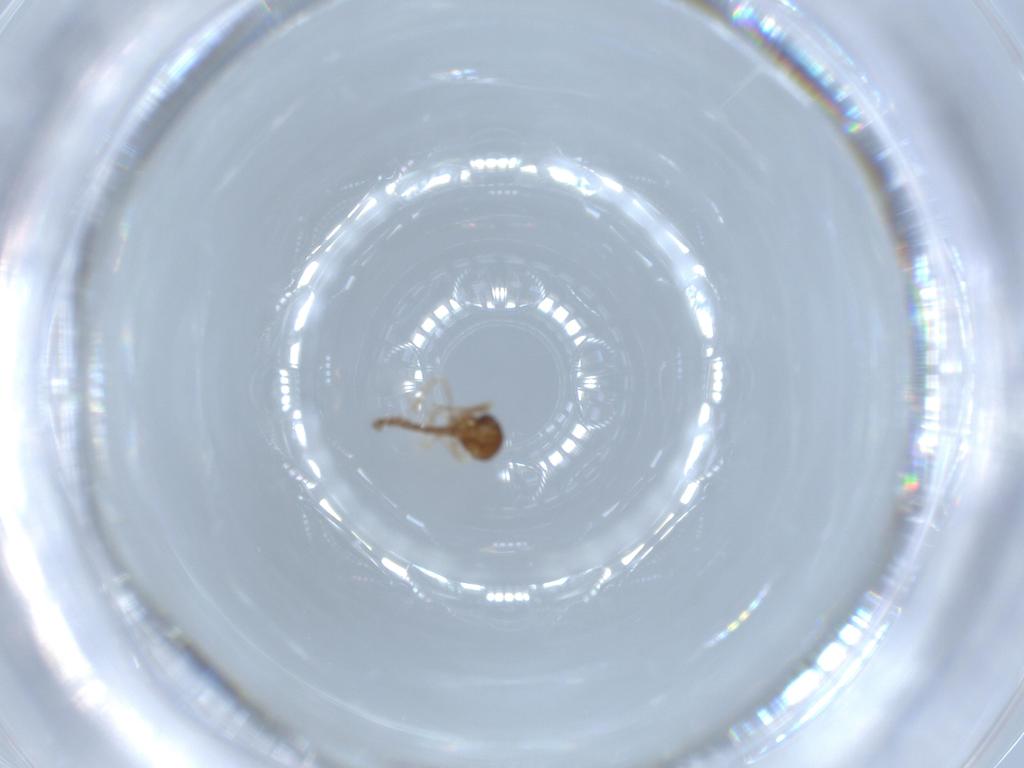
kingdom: Animalia
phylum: Arthropoda
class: Insecta
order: Diptera
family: Ceratopogonidae
